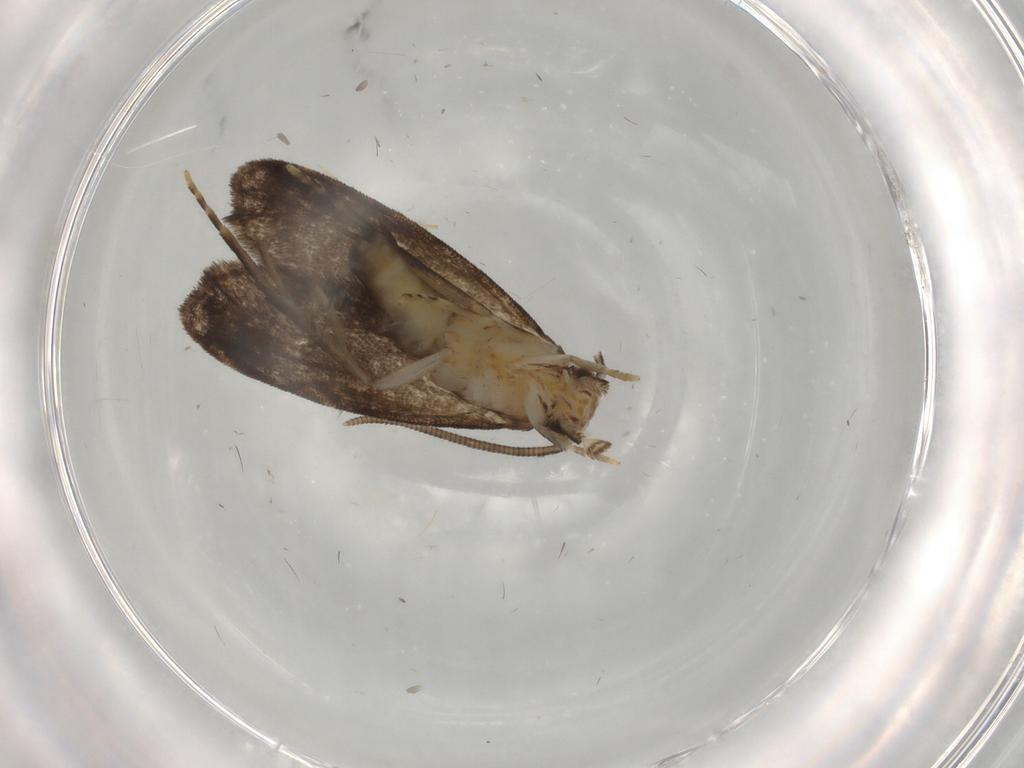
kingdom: Animalia
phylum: Arthropoda
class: Insecta
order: Lepidoptera
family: Dryadaulidae
